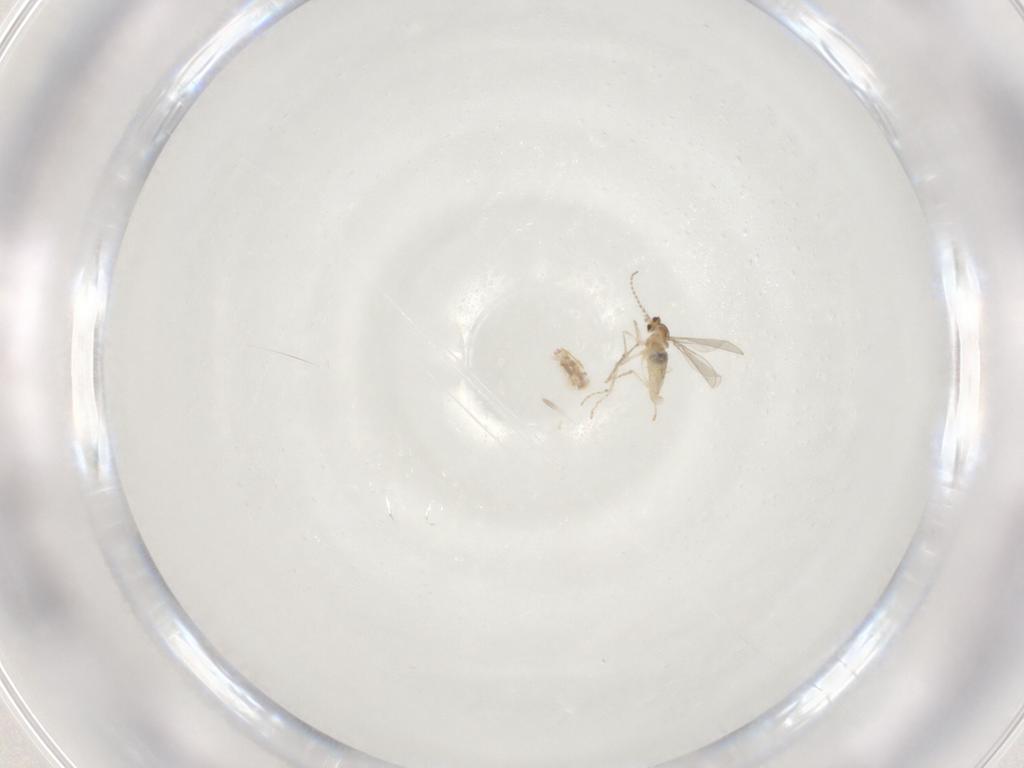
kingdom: Animalia
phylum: Arthropoda
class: Insecta
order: Diptera
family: Cecidomyiidae
